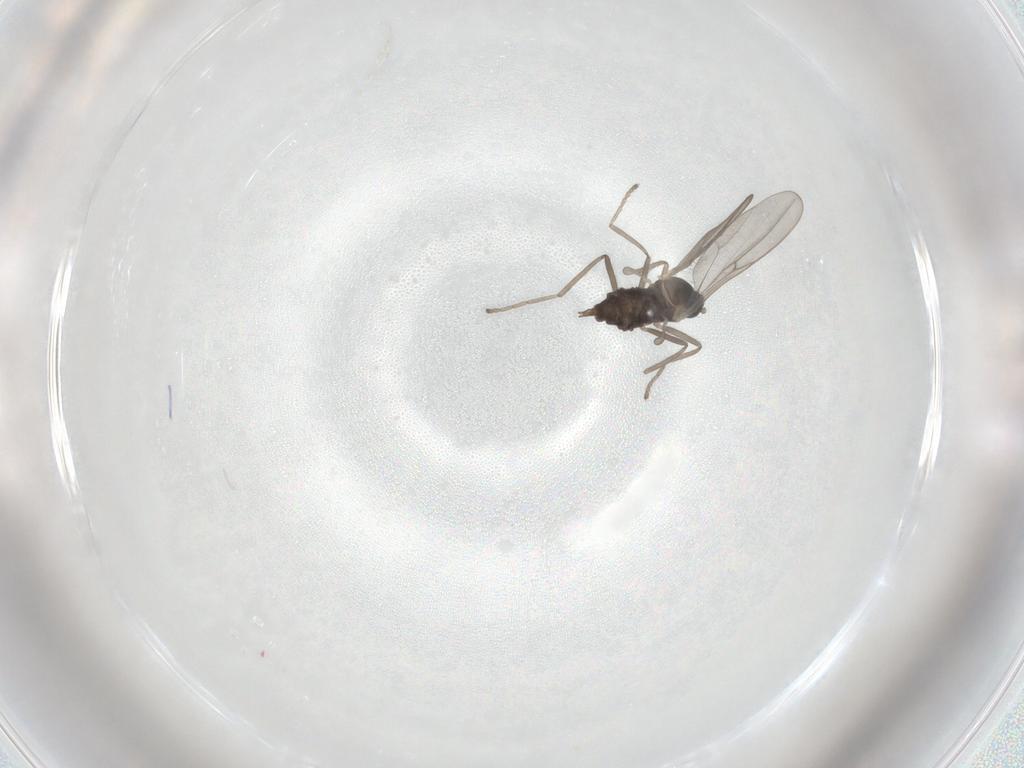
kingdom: Animalia
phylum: Arthropoda
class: Insecta
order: Diptera
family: Cecidomyiidae
